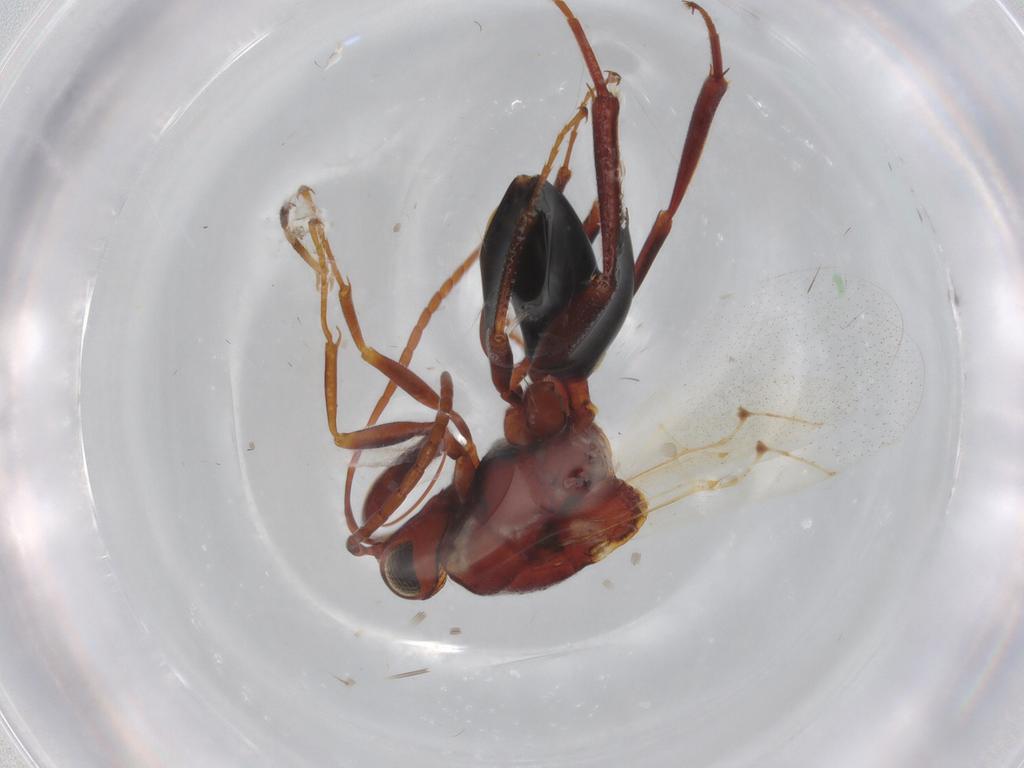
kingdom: Animalia
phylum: Arthropoda
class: Insecta
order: Hymenoptera
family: Figitidae
